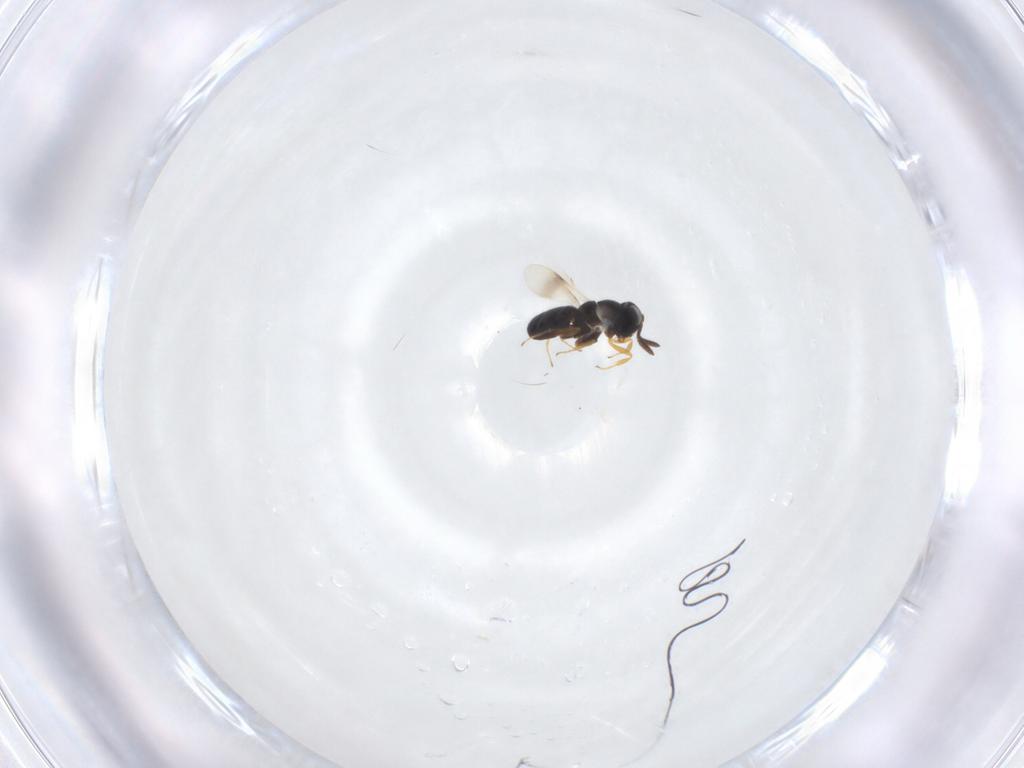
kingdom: Animalia
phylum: Arthropoda
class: Insecta
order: Hymenoptera
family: Scelionidae
